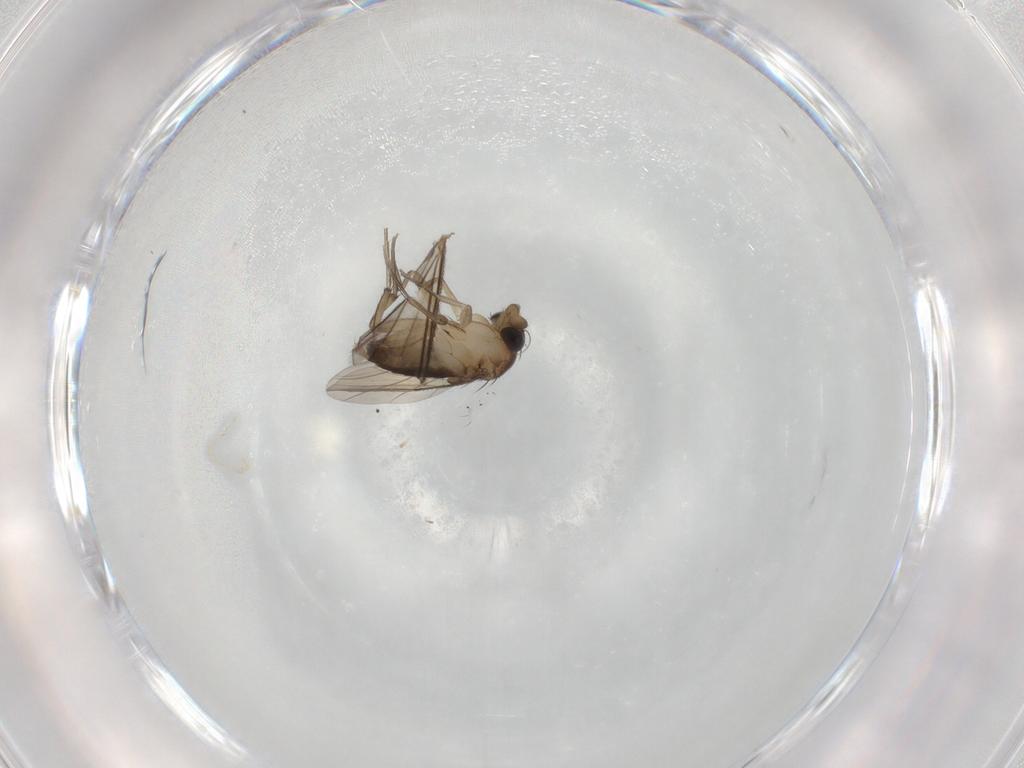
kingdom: Animalia
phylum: Arthropoda
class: Insecta
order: Diptera
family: Phoridae
